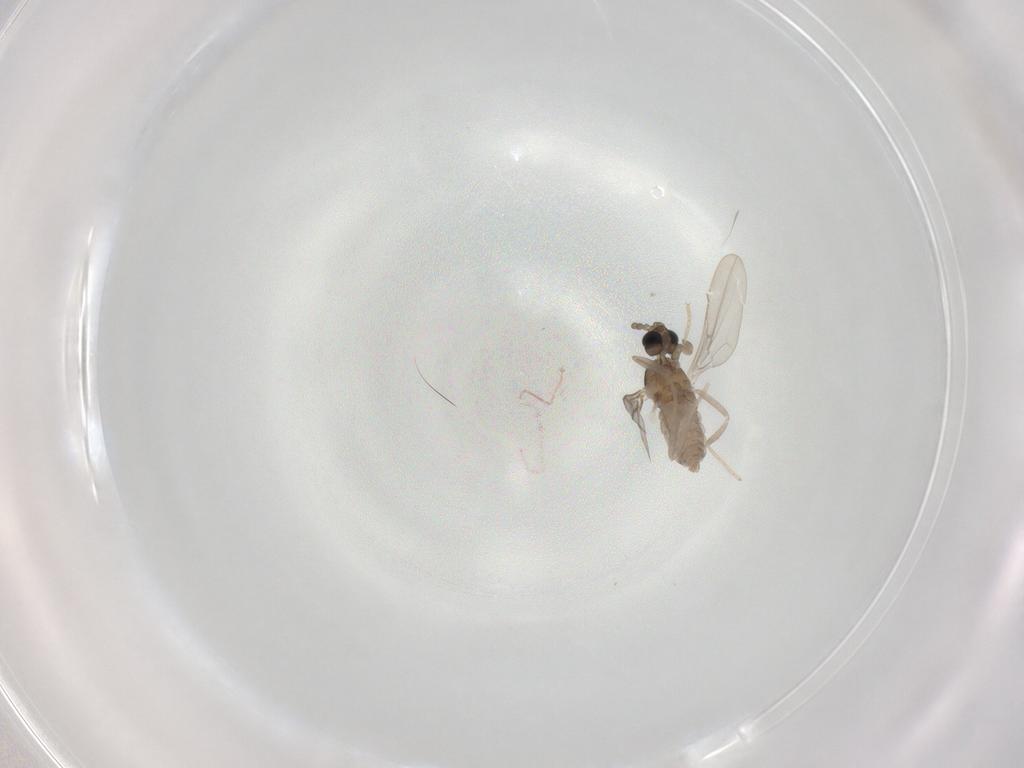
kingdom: Animalia
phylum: Arthropoda
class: Insecta
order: Diptera
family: Cecidomyiidae
